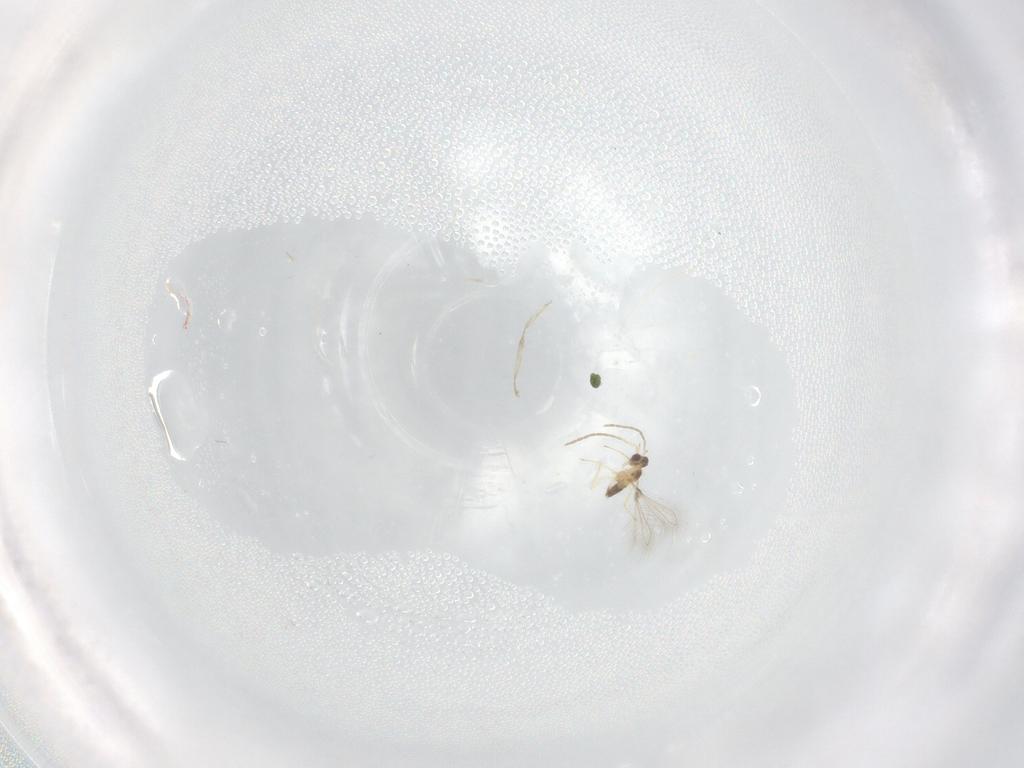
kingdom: Animalia
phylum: Arthropoda
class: Insecta
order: Hymenoptera
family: Mymaridae
